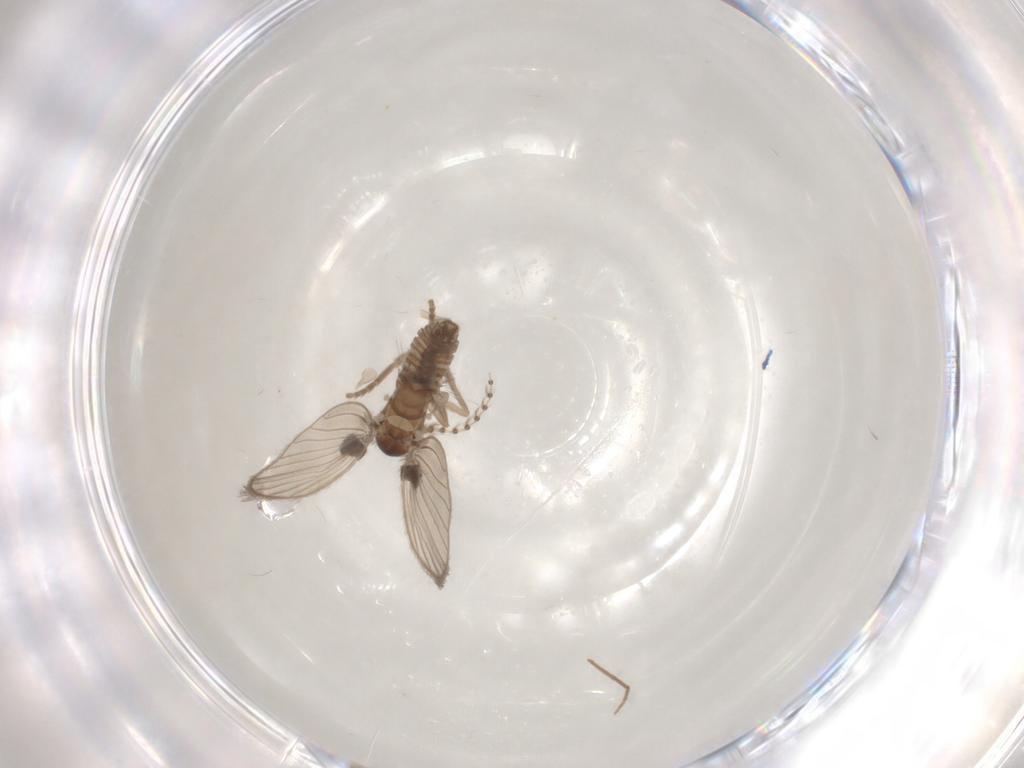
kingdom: Animalia
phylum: Arthropoda
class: Insecta
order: Diptera
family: Psychodidae
